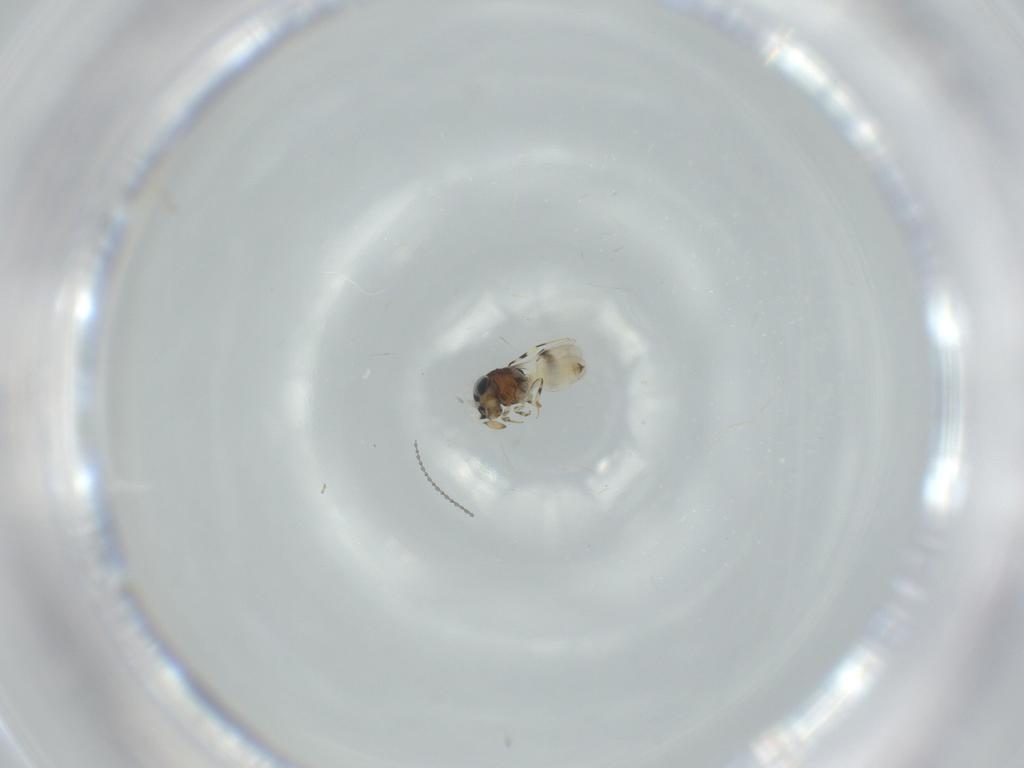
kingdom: Animalia
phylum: Arthropoda
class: Insecta
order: Hymenoptera
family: Scelionidae
